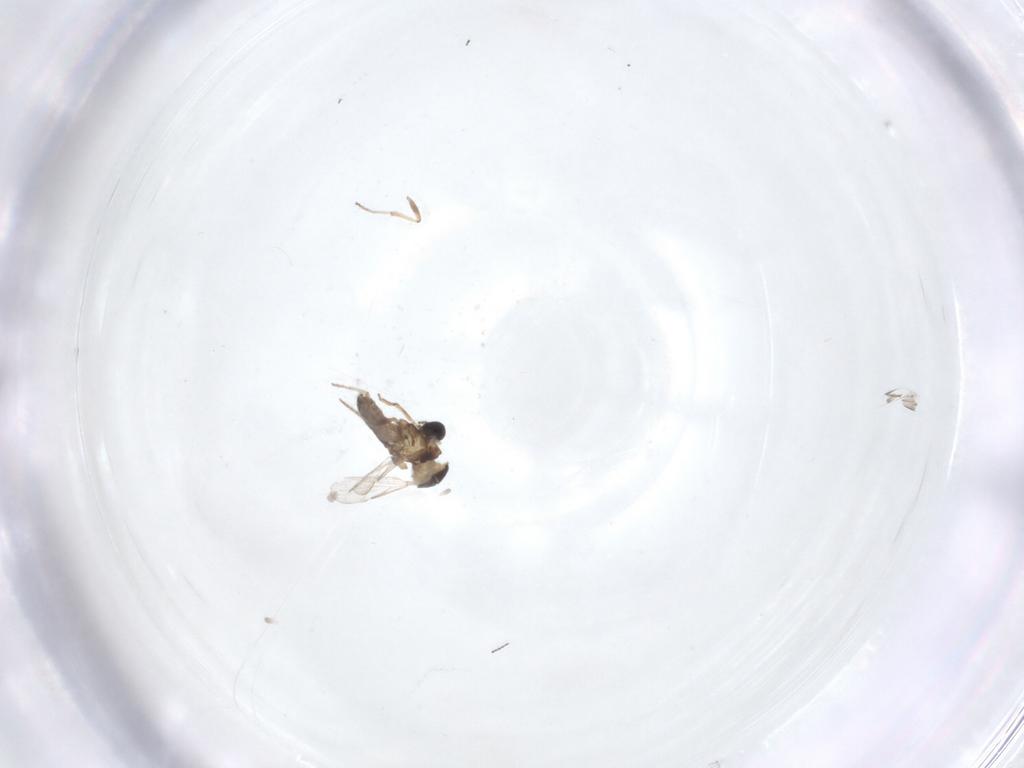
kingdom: Animalia
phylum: Arthropoda
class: Insecta
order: Diptera
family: Ceratopogonidae
